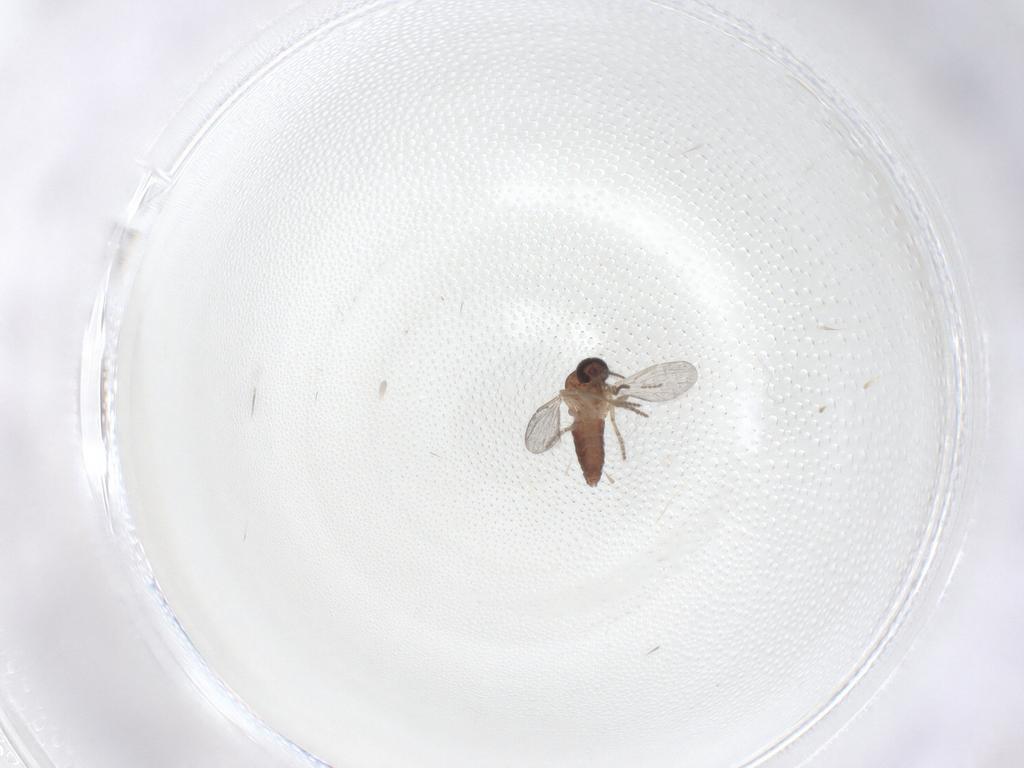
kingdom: Animalia
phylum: Arthropoda
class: Insecta
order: Diptera
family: Ceratopogonidae
